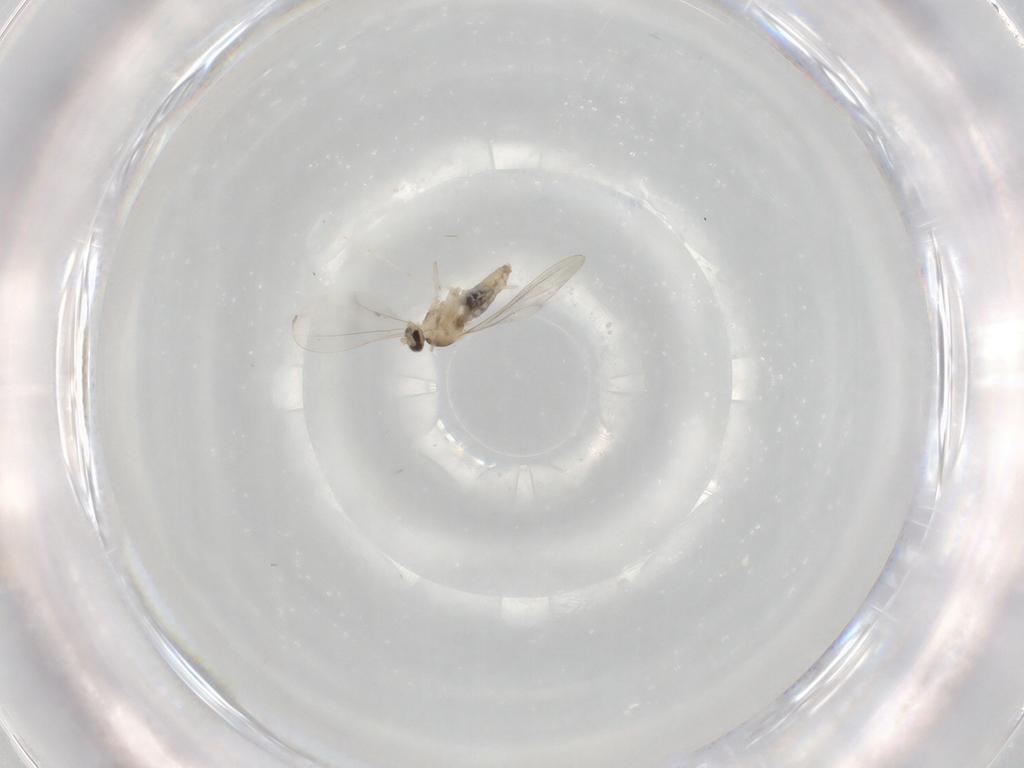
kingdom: Animalia
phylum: Arthropoda
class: Insecta
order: Diptera
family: Cecidomyiidae
